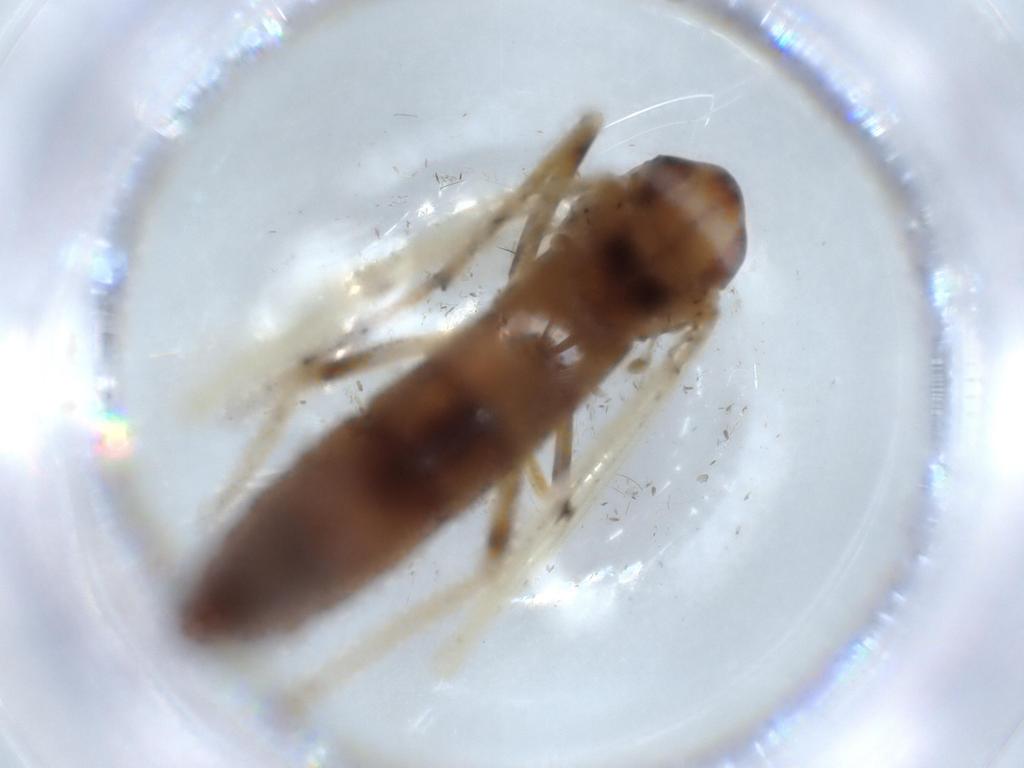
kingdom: Animalia
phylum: Arthropoda
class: Insecta
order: Diptera
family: Chironomidae
